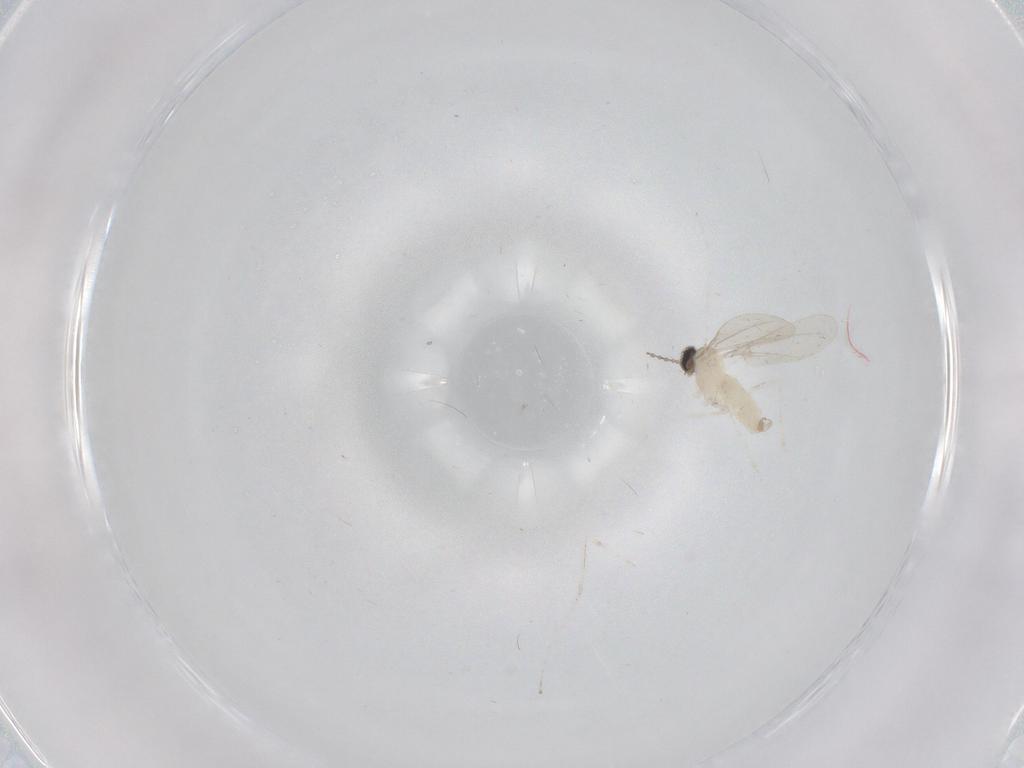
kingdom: Animalia
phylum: Arthropoda
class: Insecta
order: Diptera
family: Cecidomyiidae
